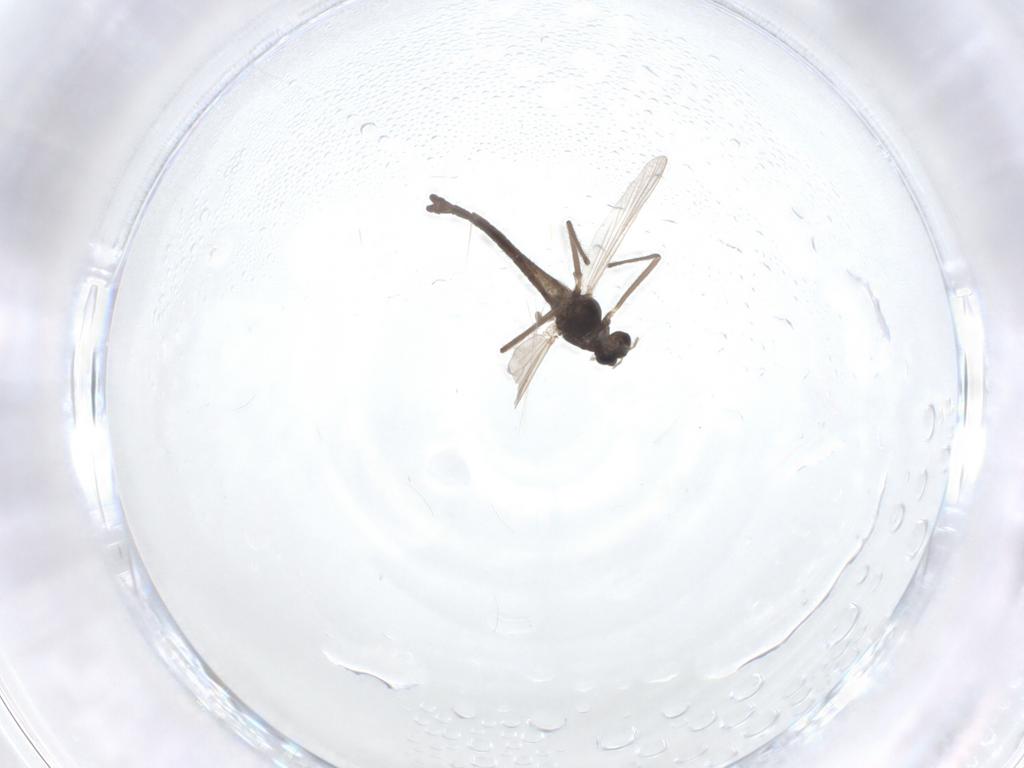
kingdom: Animalia
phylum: Arthropoda
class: Insecta
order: Diptera
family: Chironomidae
